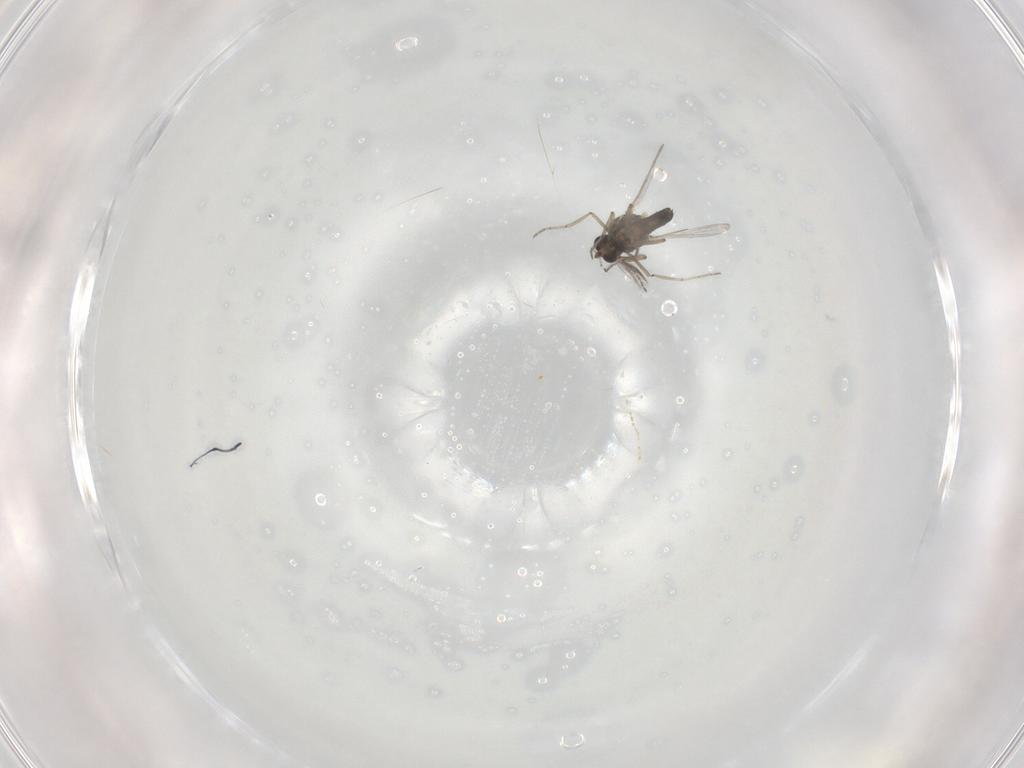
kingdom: Animalia
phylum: Arthropoda
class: Insecta
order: Diptera
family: Ceratopogonidae
